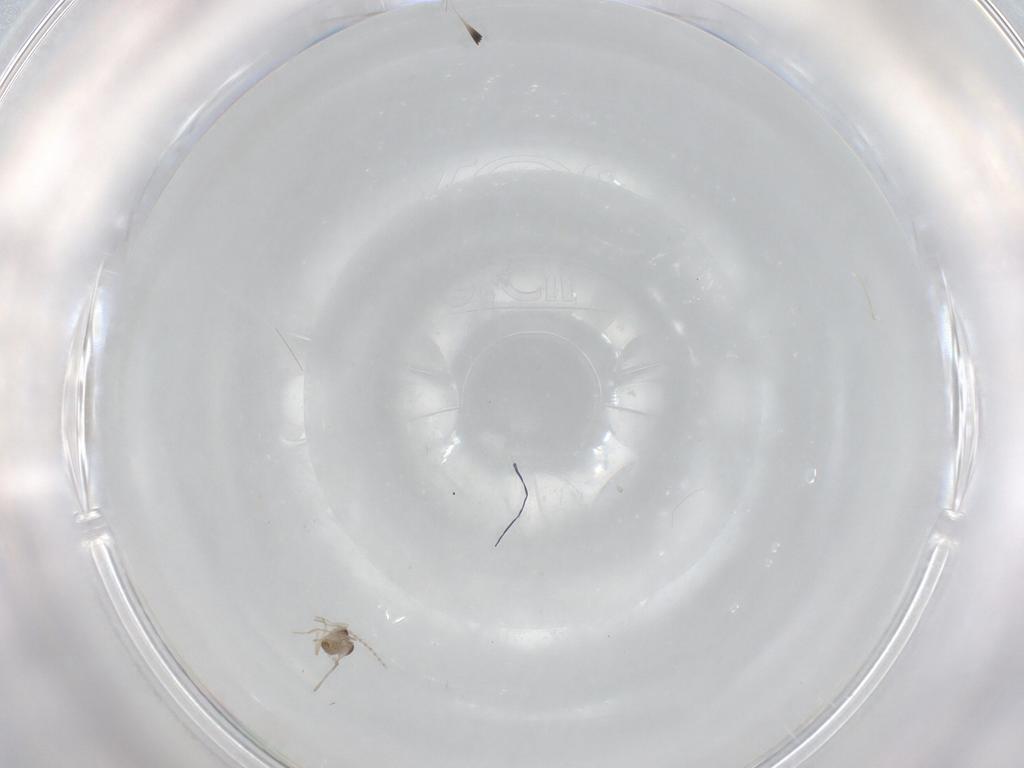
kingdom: Animalia
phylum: Arthropoda
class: Insecta
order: Diptera
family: Cecidomyiidae
